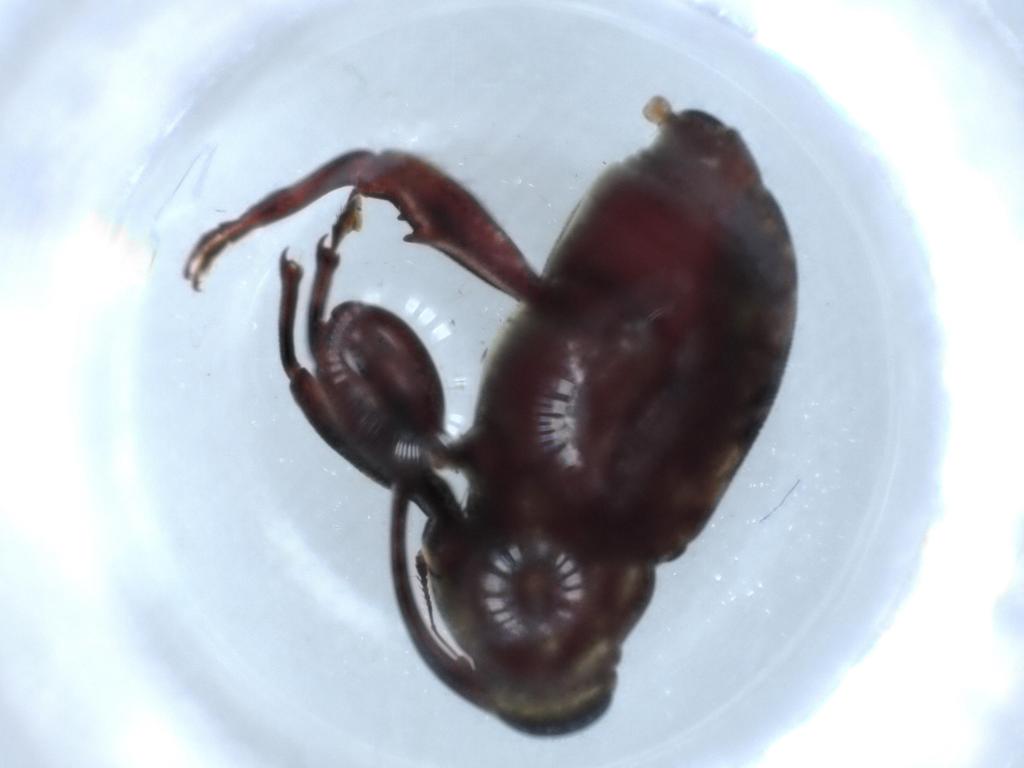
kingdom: Animalia
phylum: Arthropoda
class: Insecta
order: Coleoptera
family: Curculionidae
